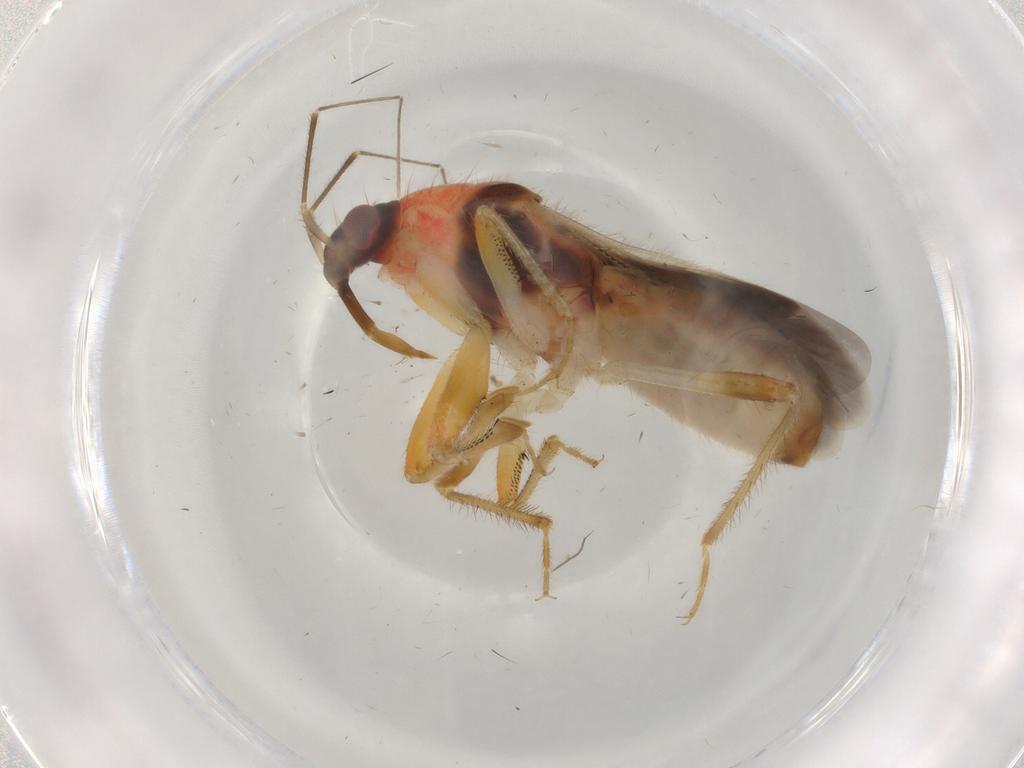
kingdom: Animalia
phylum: Arthropoda
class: Insecta
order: Hemiptera
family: Nabidae
